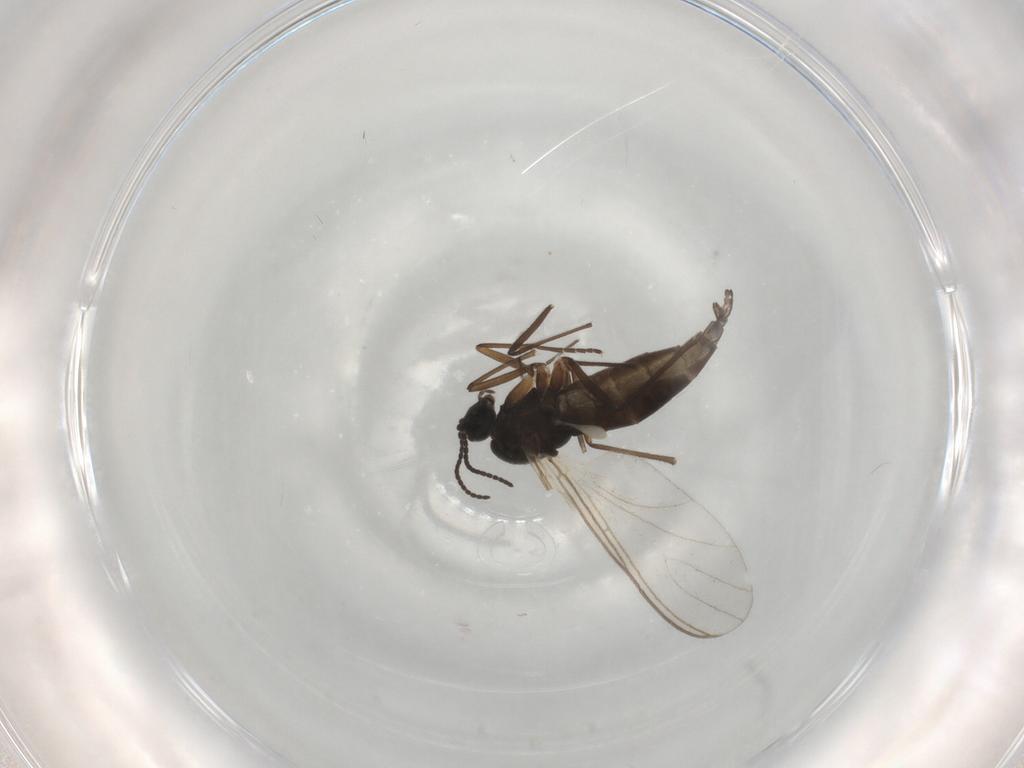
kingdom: Animalia
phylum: Arthropoda
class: Insecta
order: Diptera
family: Sciaridae
